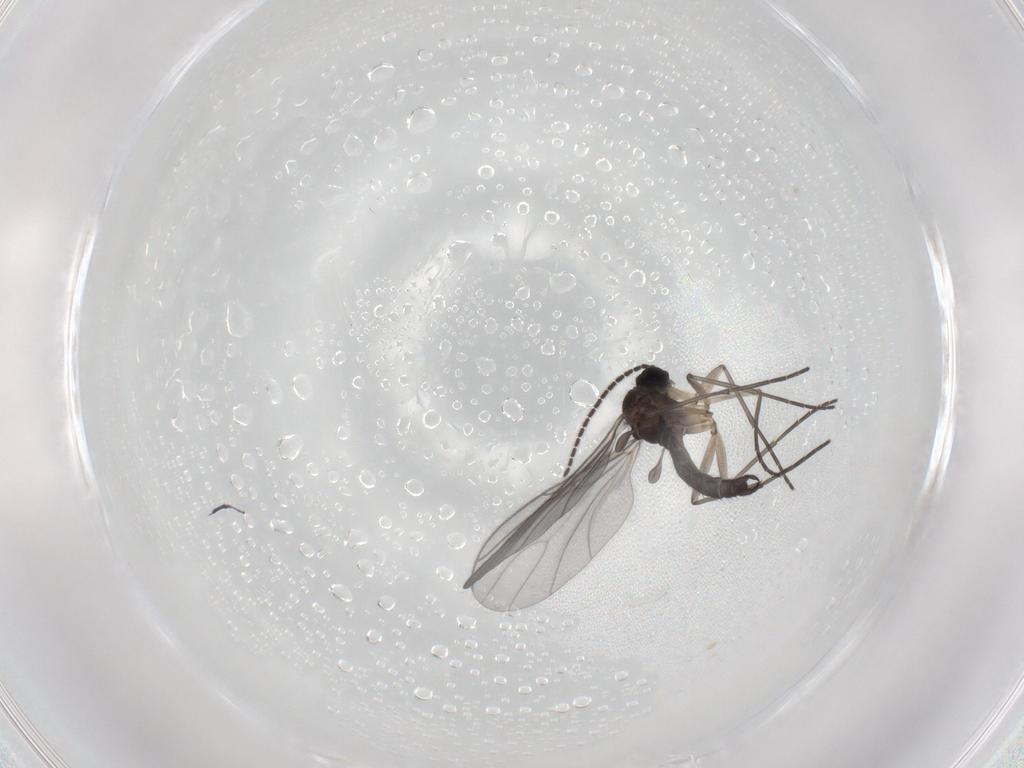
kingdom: Animalia
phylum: Arthropoda
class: Insecta
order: Diptera
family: Sciaridae
